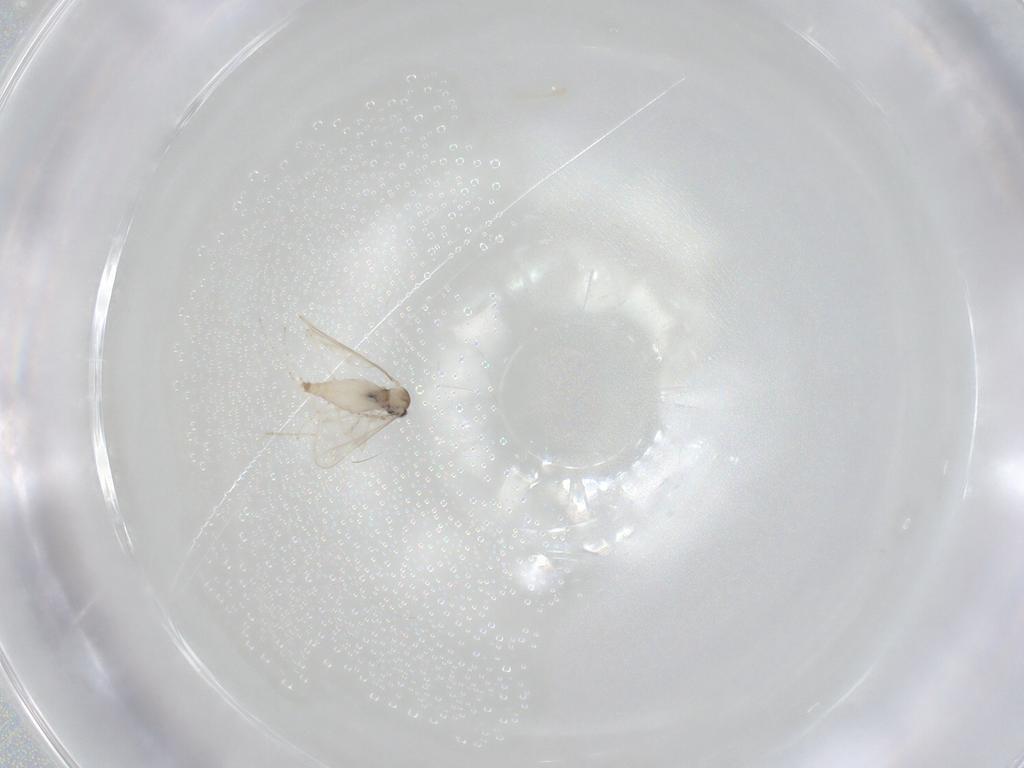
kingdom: Animalia
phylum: Arthropoda
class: Insecta
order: Diptera
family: Cecidomyiidae
